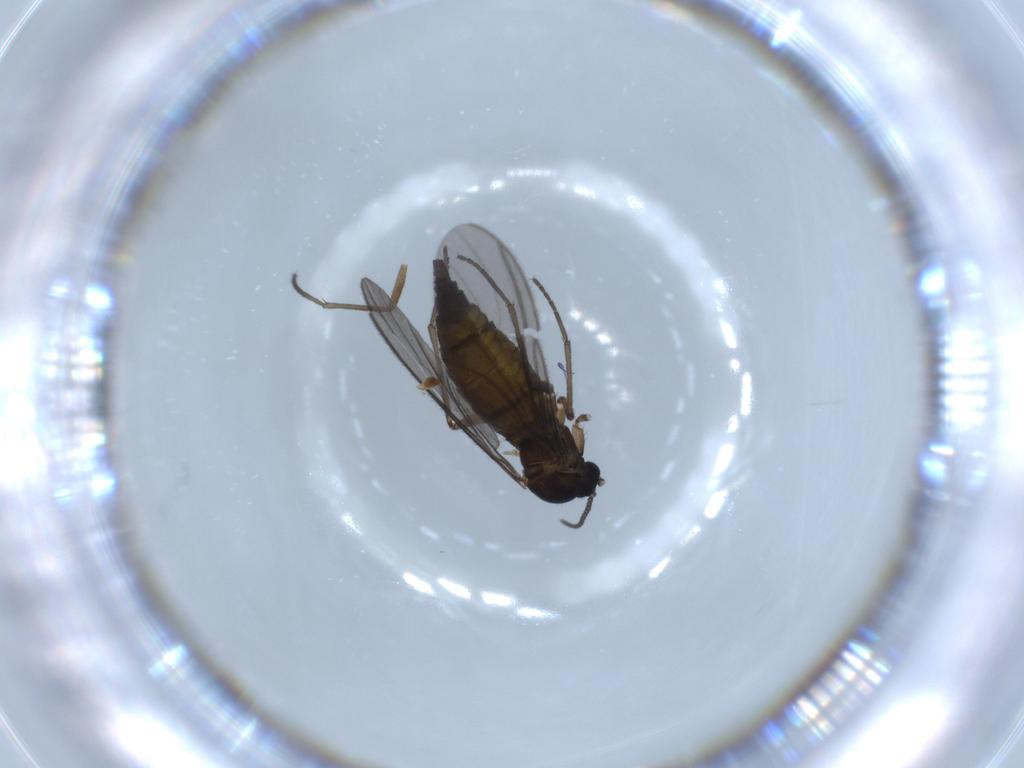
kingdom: Animalia
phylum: Arthropoda
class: Insecta
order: Diptera
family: Sciaridae
